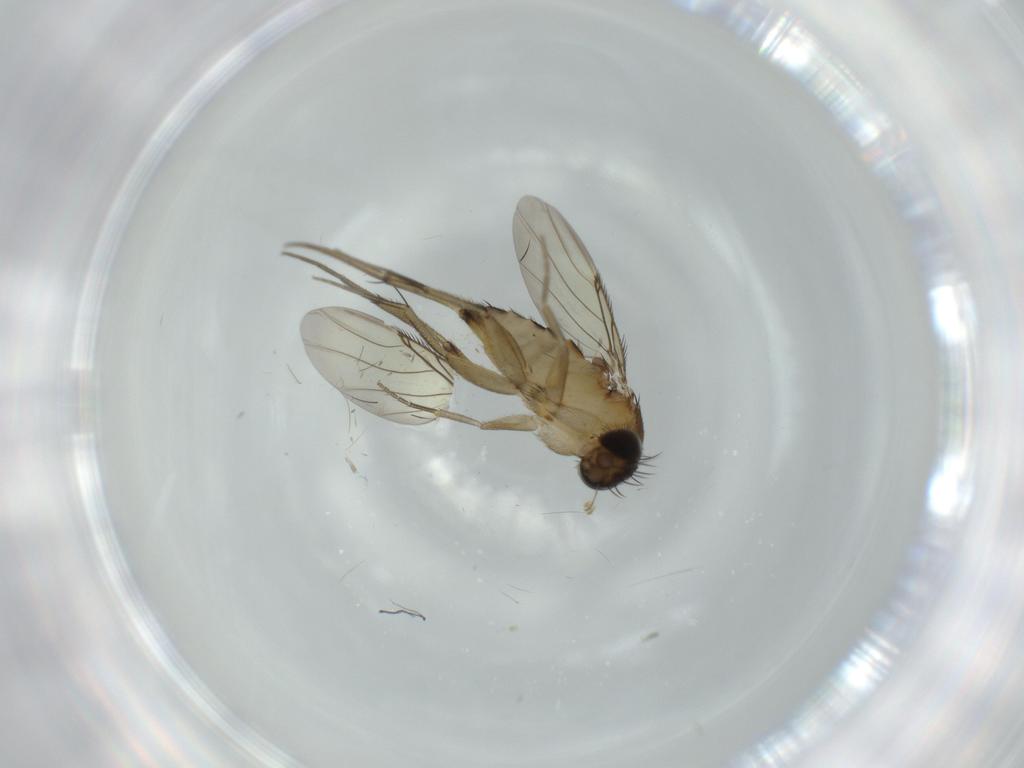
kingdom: Animalia
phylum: Arthropoda
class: Insecta
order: Diptera
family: Phoridae
